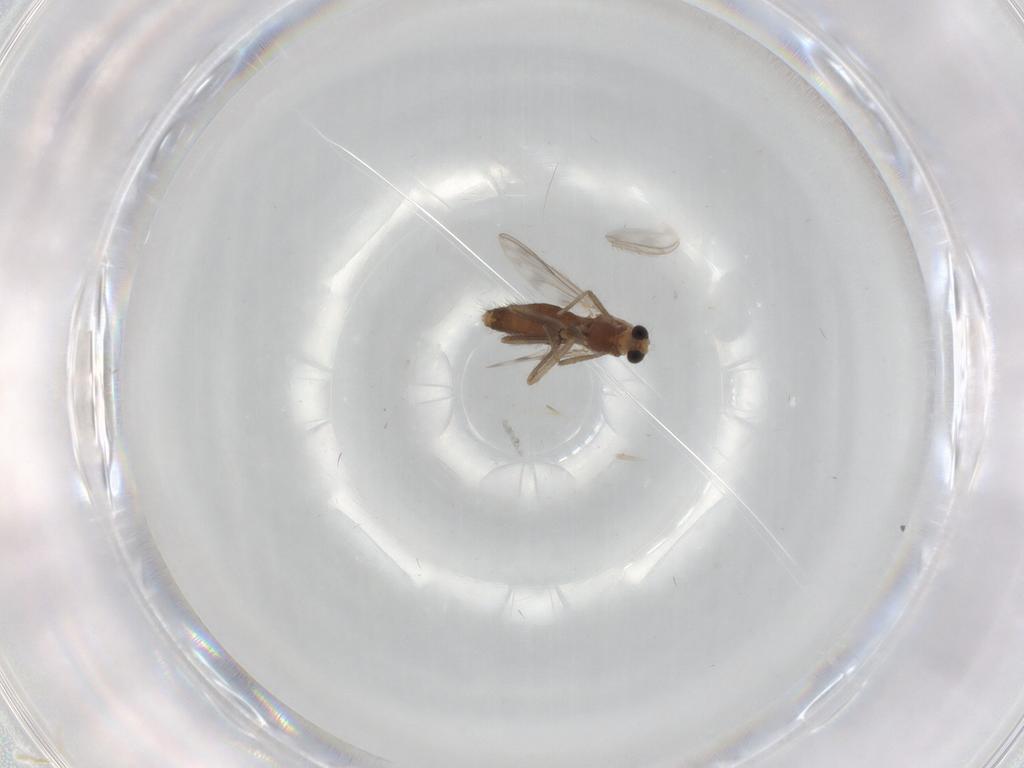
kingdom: Animalia
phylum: Arthropoda
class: Insecta
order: Diptera
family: Chironomidae
